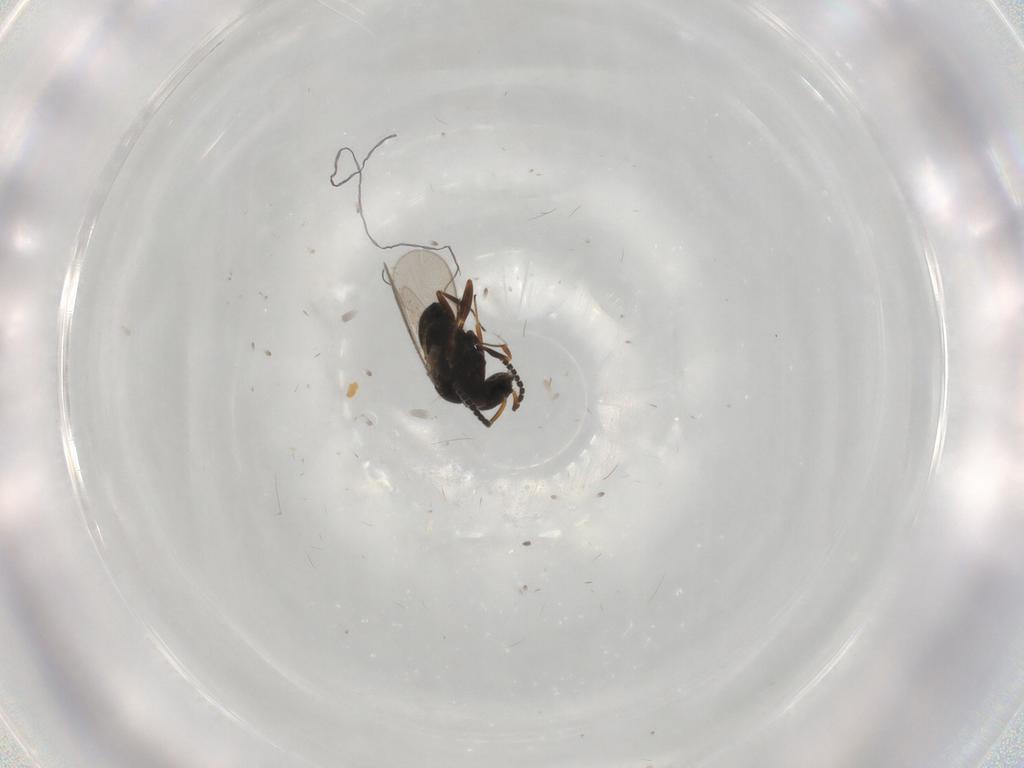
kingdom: Animalia
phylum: Arthropoda
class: Insecta
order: Hymenoptera
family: Scelionidae
